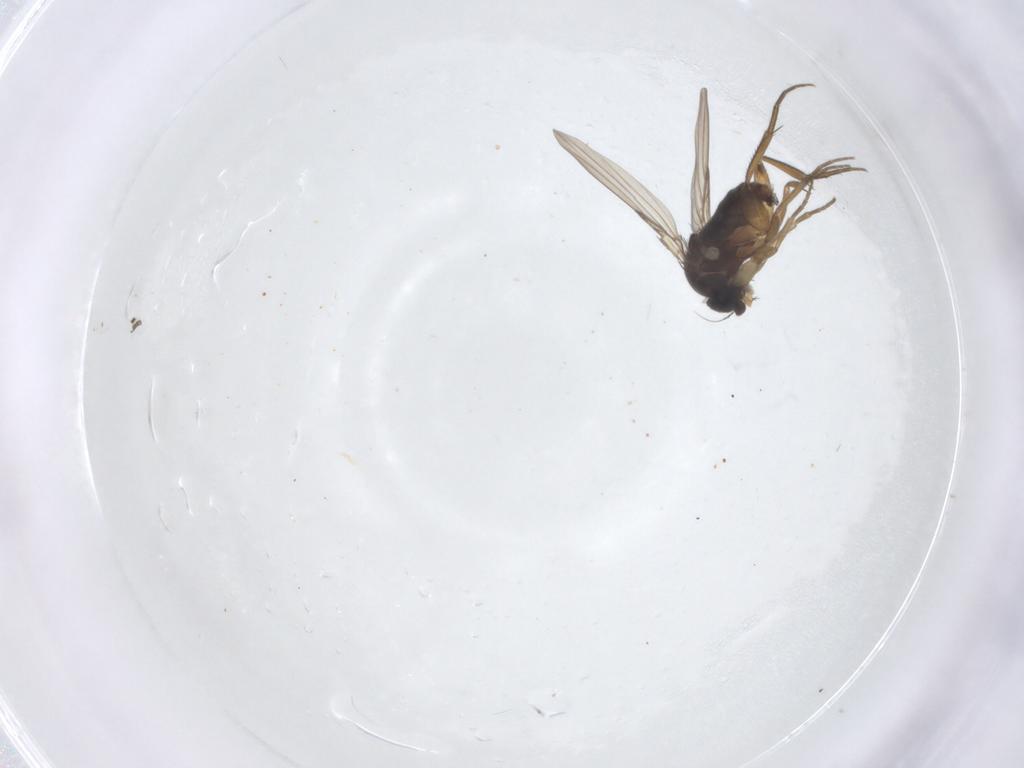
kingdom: Animalia
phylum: Arthropoda
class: Insecta
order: Diptera
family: Phoridae
